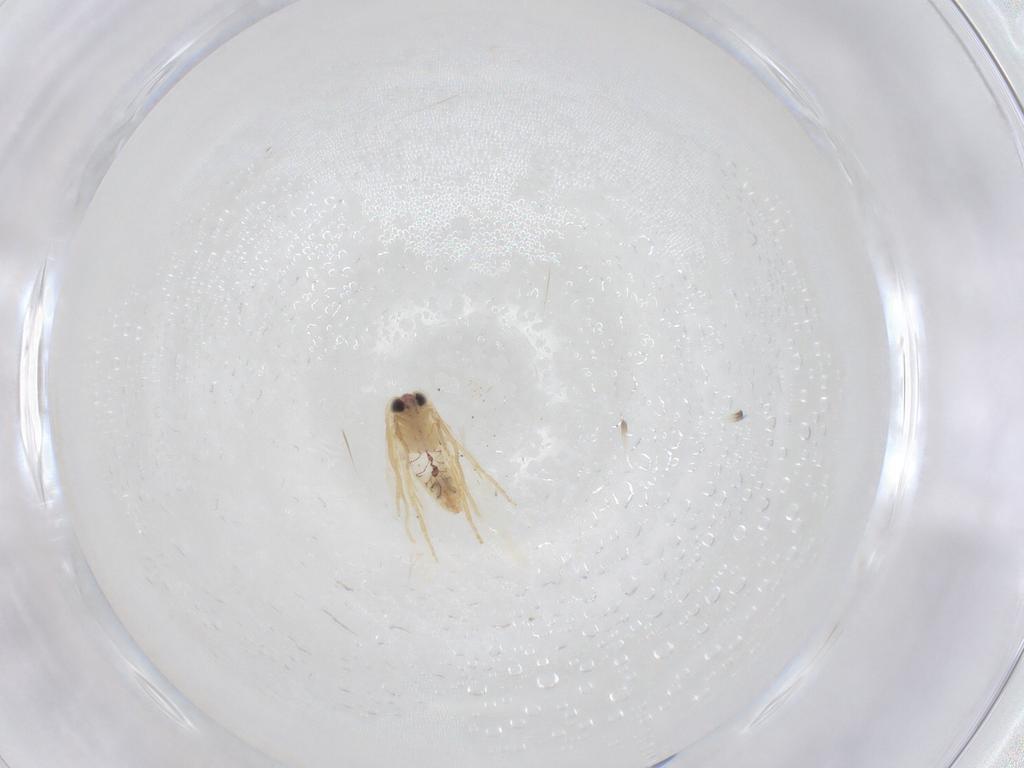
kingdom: Animalia
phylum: Arthropoda
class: Insecta
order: Lepidoptera
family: Nepticulidae
